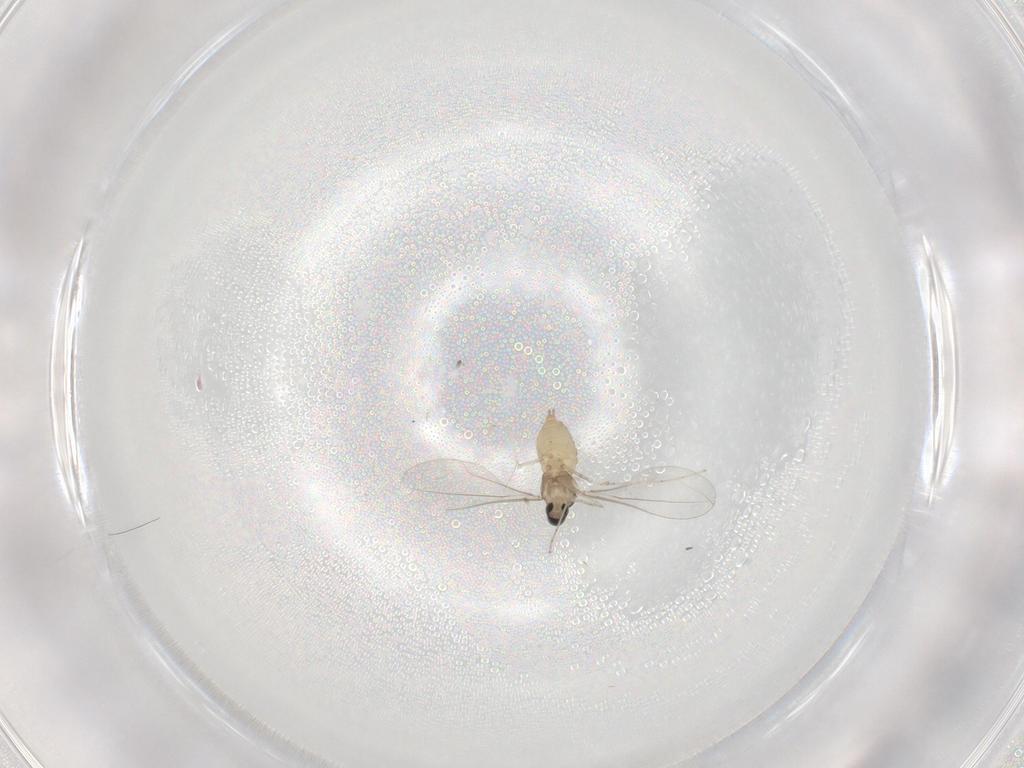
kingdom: Animalia
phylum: Arthropoda
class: Insecta
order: Diptera
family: Cecidomyiidae
